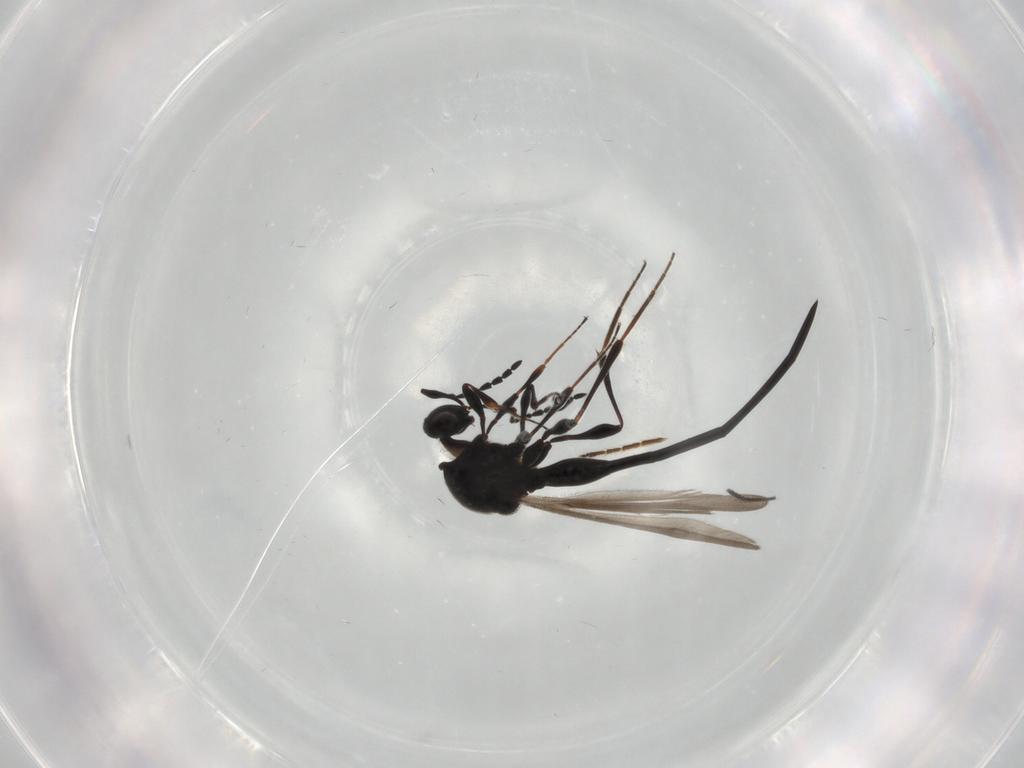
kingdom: Animalia
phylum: Arthropoda
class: Insecta
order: Hymenoptera
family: Platygastridae
